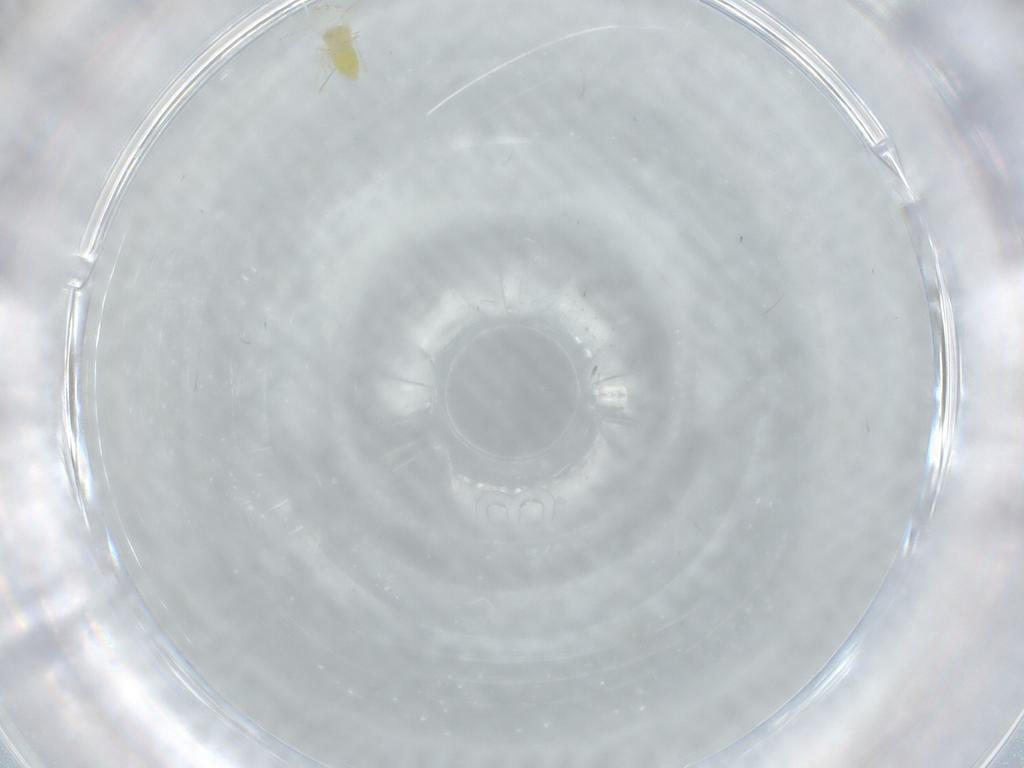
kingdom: Animalia
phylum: Arthropoda
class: Insecta
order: Hemiptera
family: Aleyrodidae
